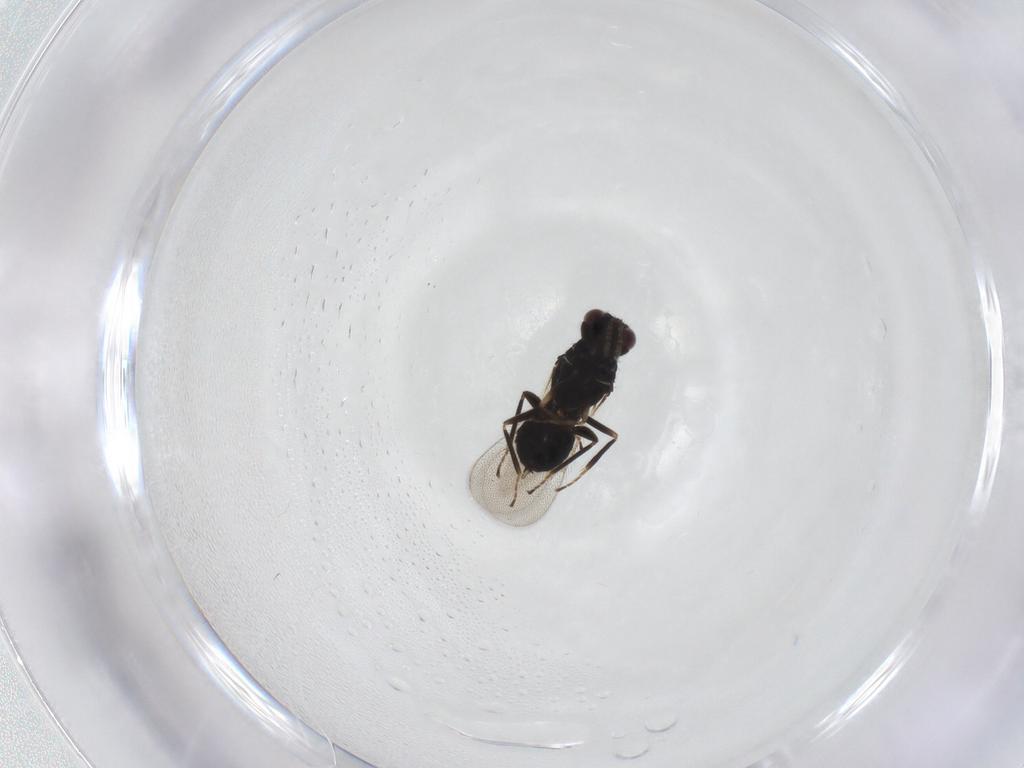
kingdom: Animalia
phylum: Arthropoda
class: Insecta
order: Hymenoptera
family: Eulophidae
